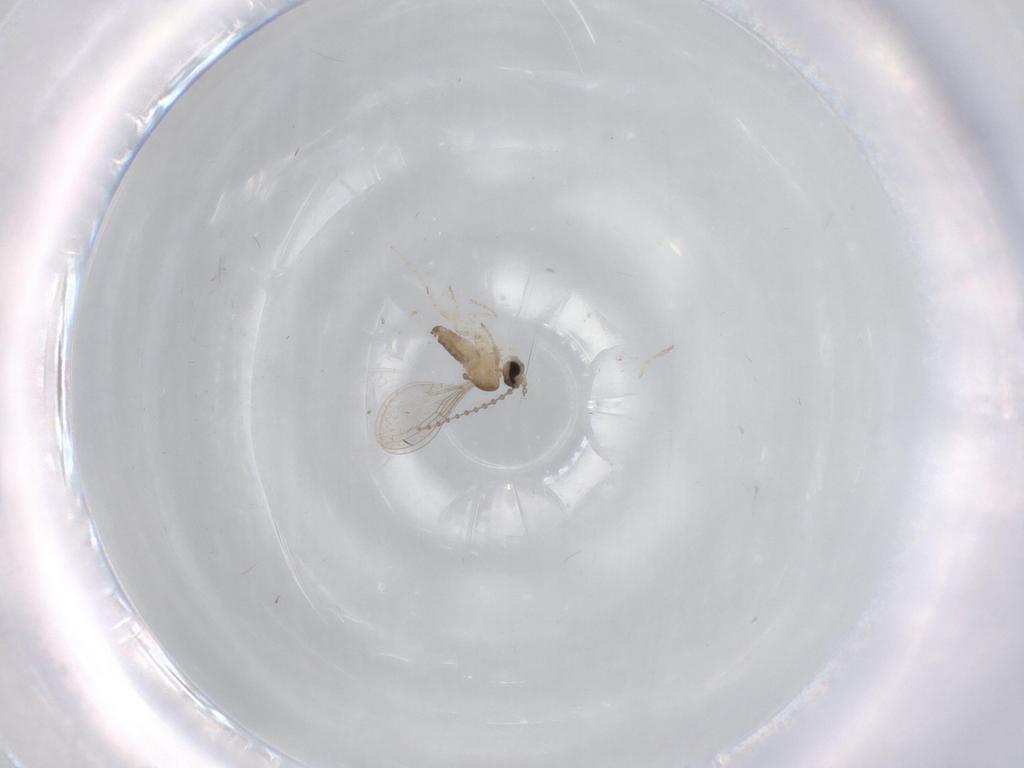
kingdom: Animalia
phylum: Arthropoda
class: Insecta
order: Diptera
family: Cecidomyiidae
